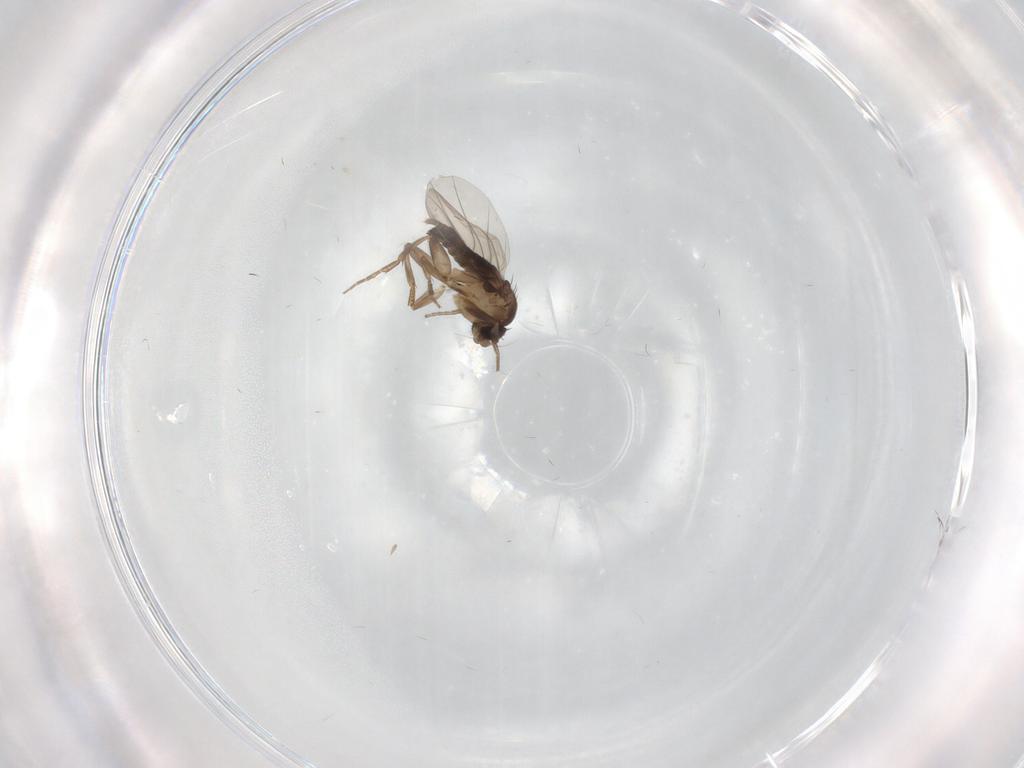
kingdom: Animalia
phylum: Arthropoda
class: Insecta
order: Diptera
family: Phoridae
